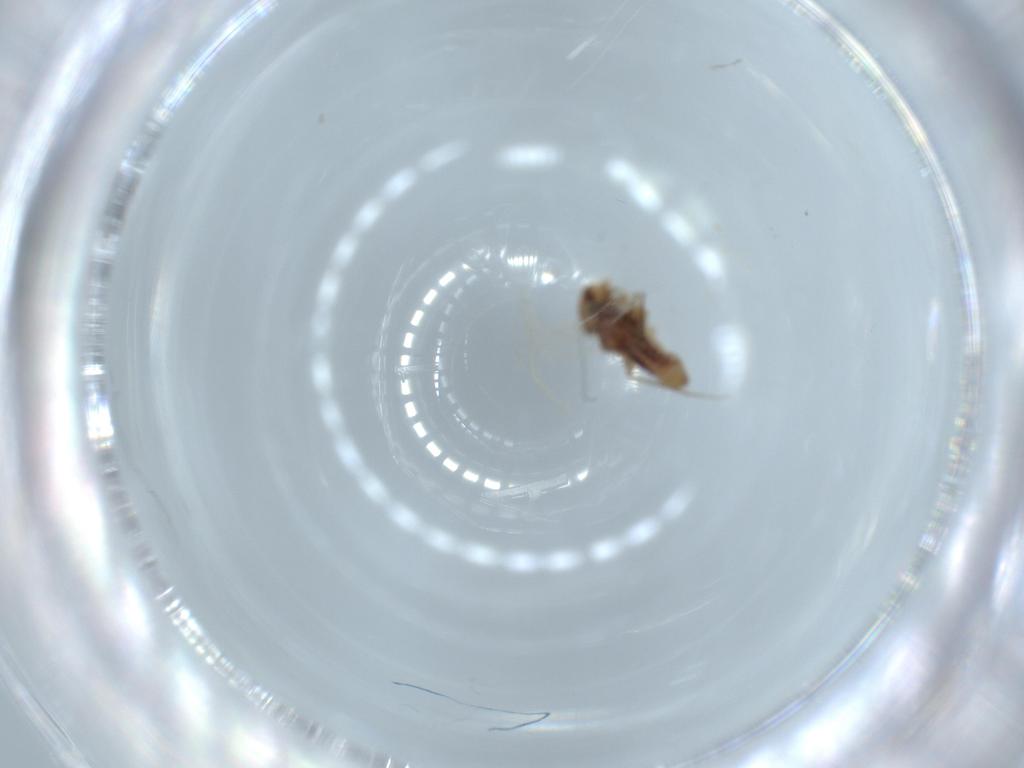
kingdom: Animalia
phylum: Arthropoda
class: Insecta
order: Psocodea
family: Lepidopsocidae
